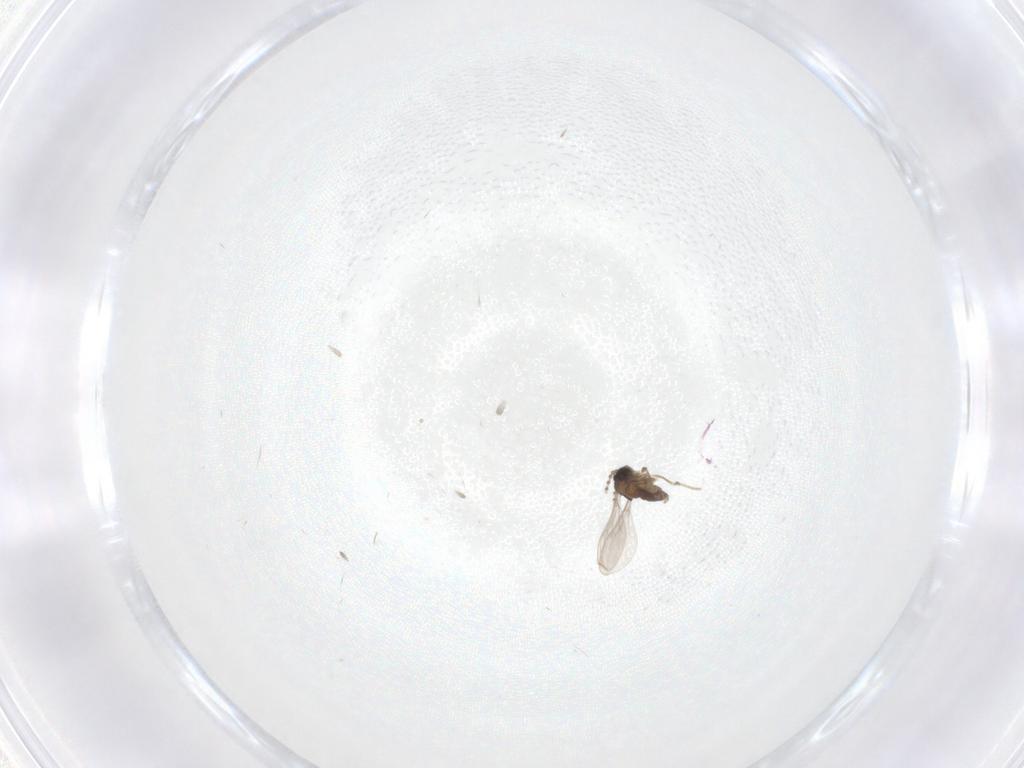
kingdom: Animalia
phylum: Arthropoda
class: Insecta
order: Diptera
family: Cecidomyiidae
